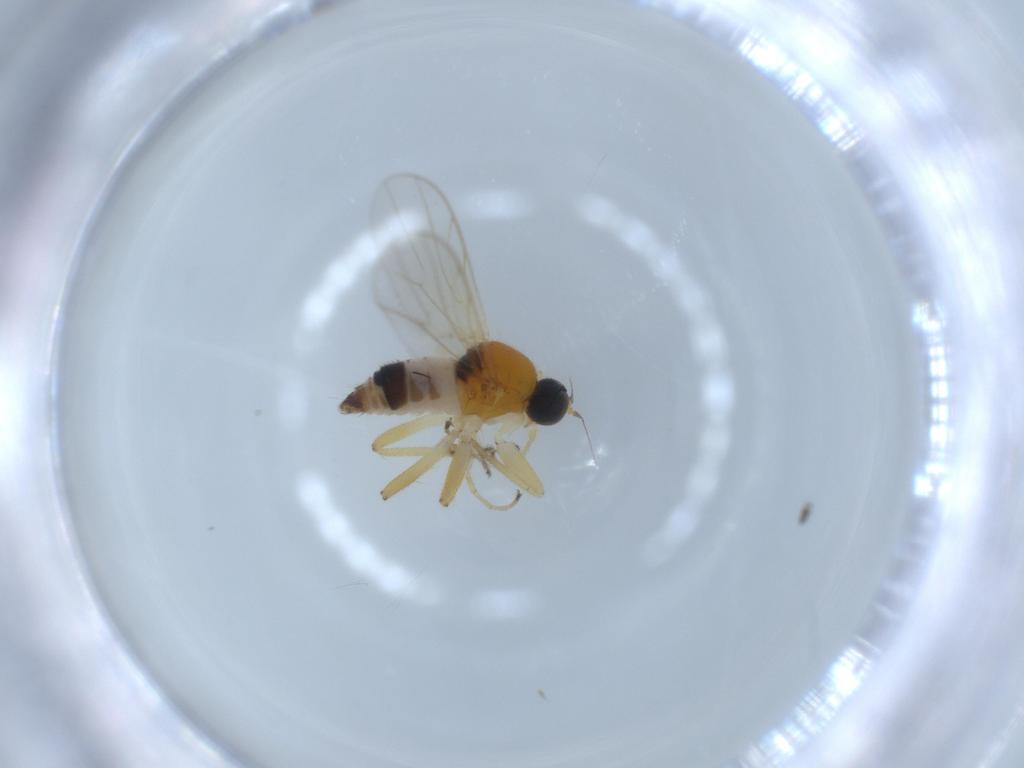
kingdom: Animalia
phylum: Arthropoda
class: Insecta
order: Diptera
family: Hybotidae
